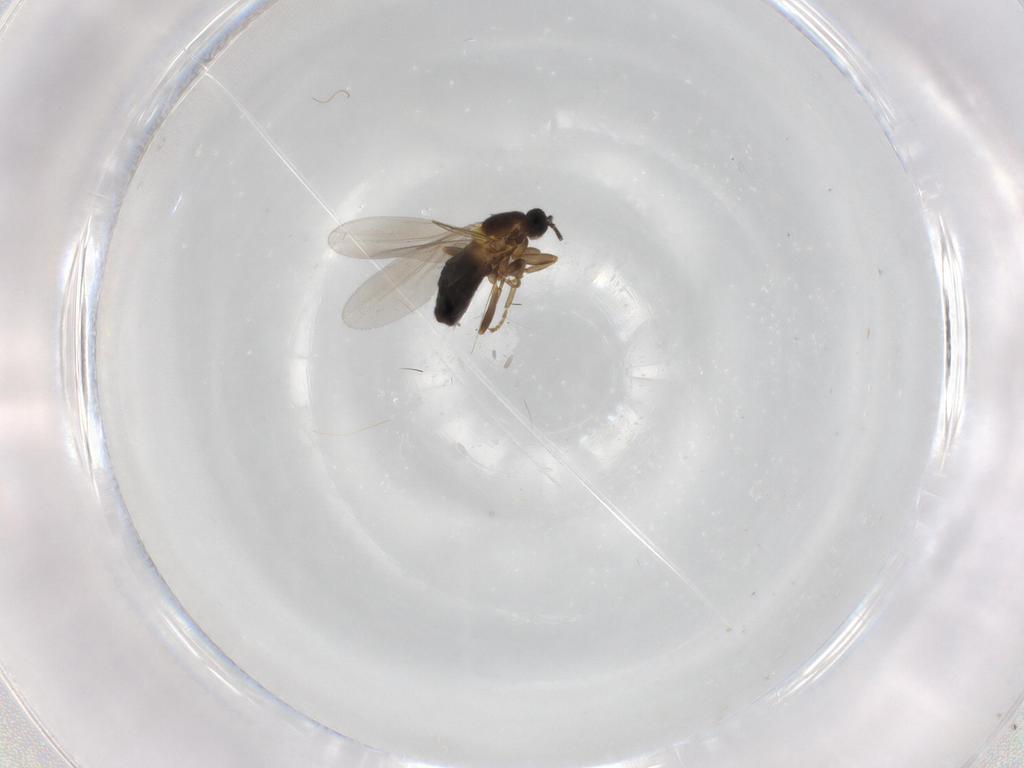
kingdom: Animalia
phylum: Arthropoda
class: Insecta
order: Diptera
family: Scatopsidae
